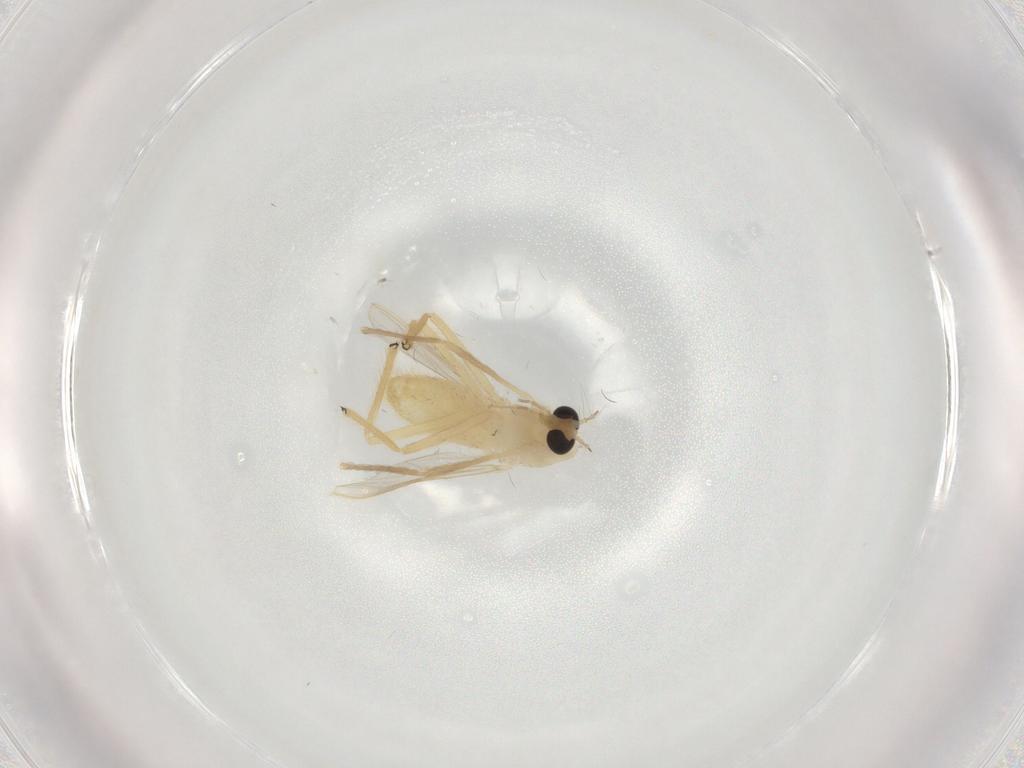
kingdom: Animalia
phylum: Arthropoda
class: Insecta
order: Diptera
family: Chironomidae
